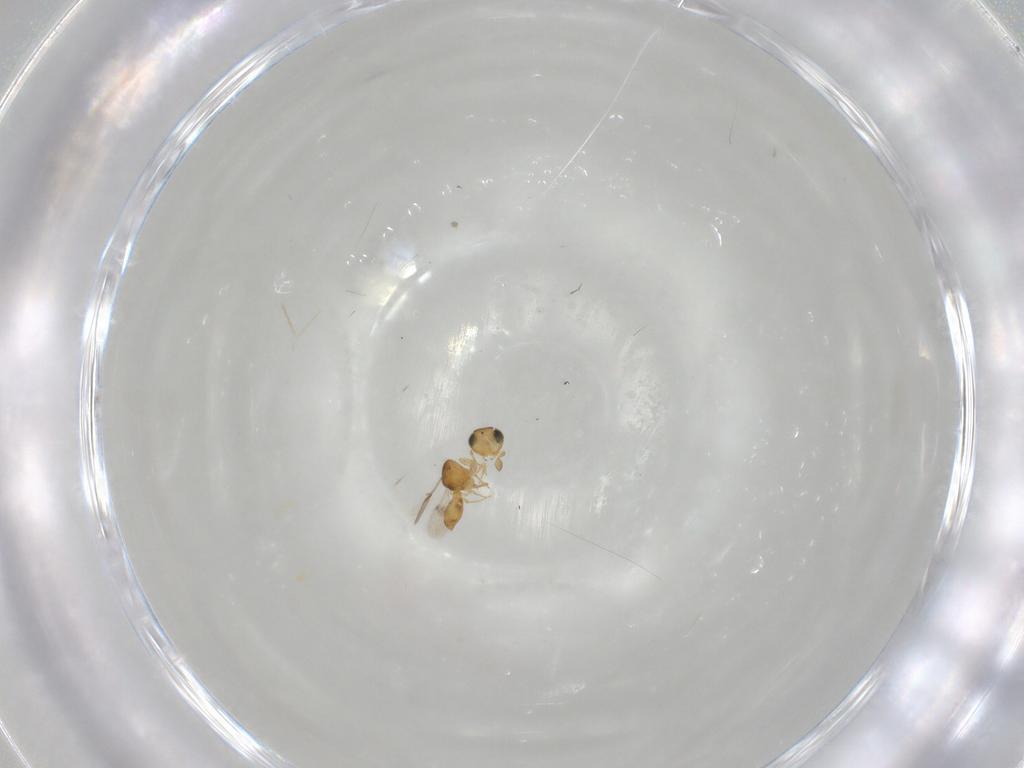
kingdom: Animalia
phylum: Arthropoda
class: Insecta
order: Hymenoptera
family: Scelionidae
